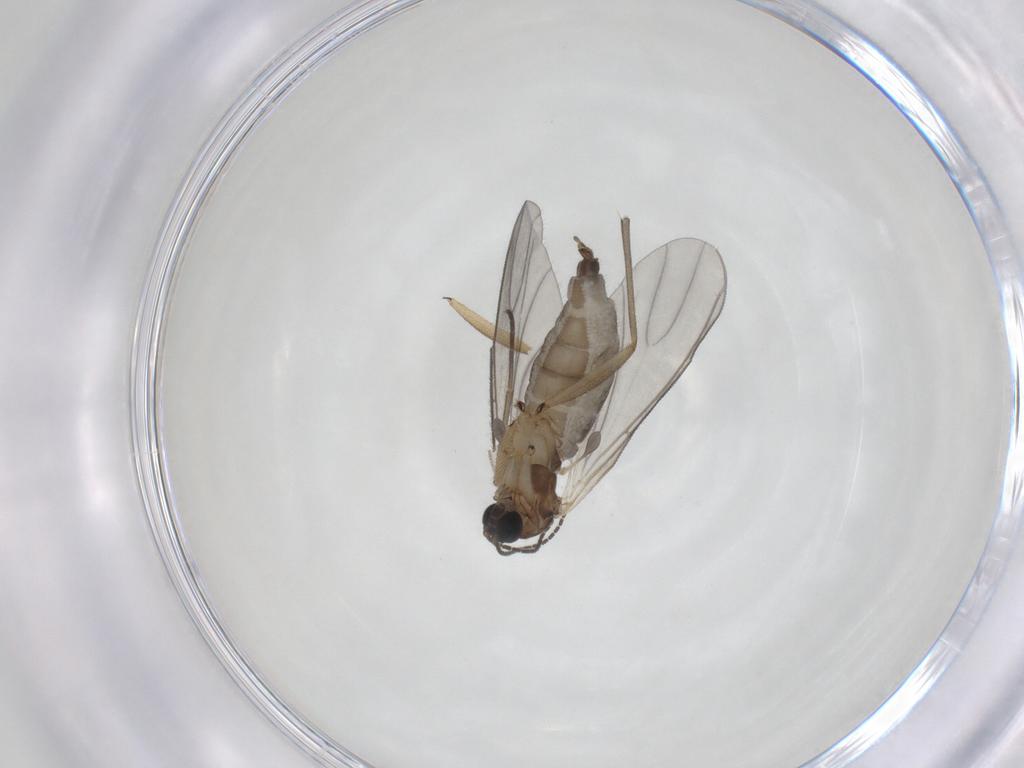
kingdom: Animalia
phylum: Arthropoda
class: Insecta
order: Diptera
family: Sciaridae
